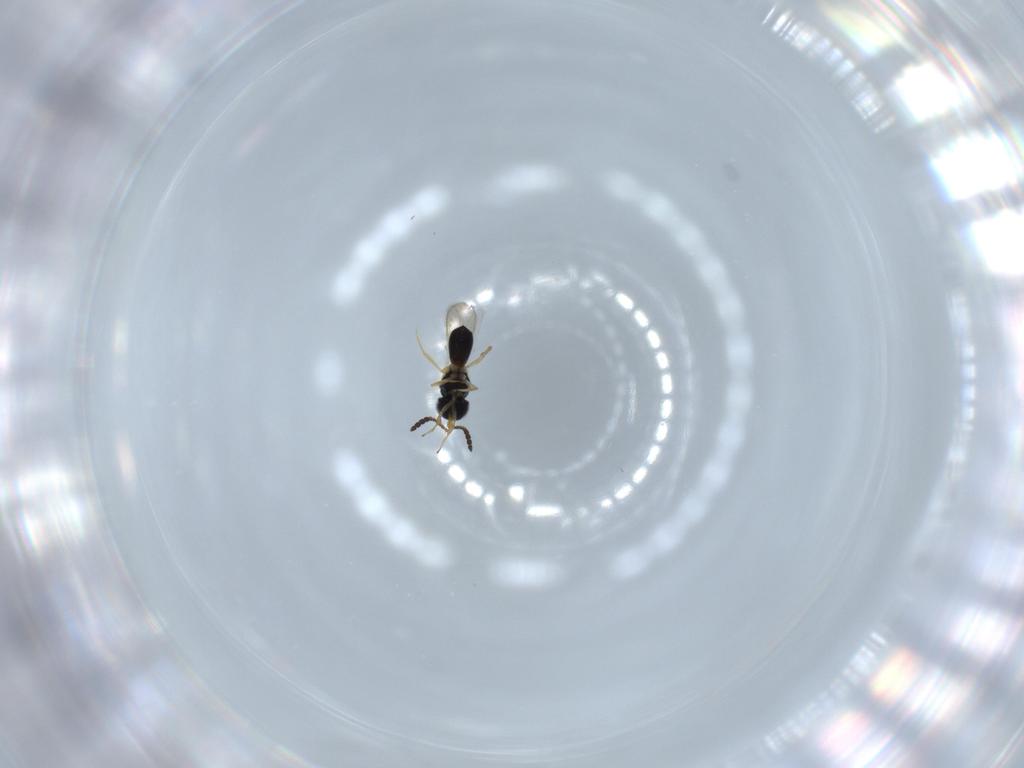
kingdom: Animalia
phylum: Arthropoda
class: Insecta
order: Hymenoptera
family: Scelionidae
